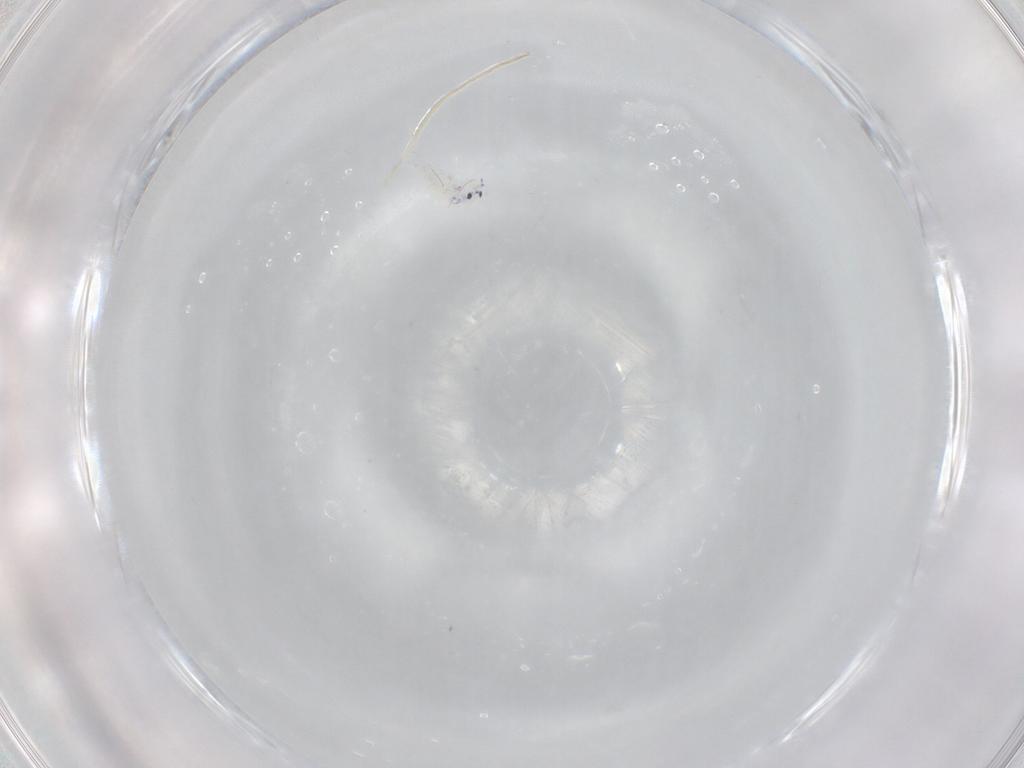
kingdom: Animalia
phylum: Arthropoda
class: Collembola
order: Entomobryomorpha
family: Entomobryidae
